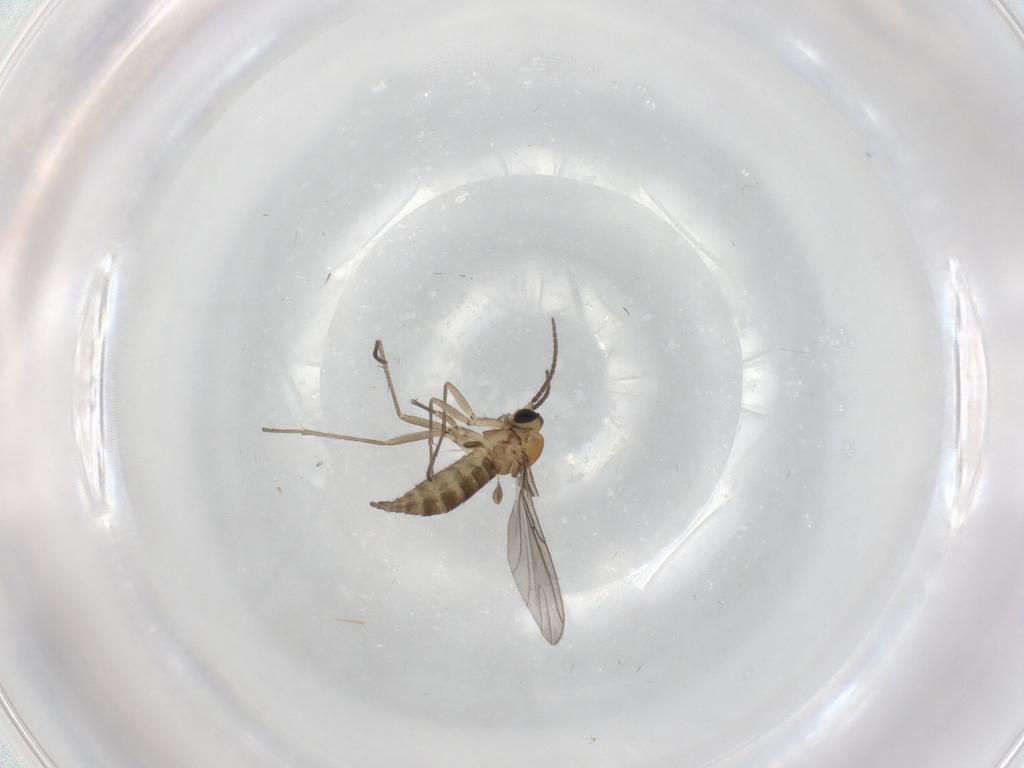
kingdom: Animalia
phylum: Arthropoda
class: Insecta
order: Diptera
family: Sciaridae
